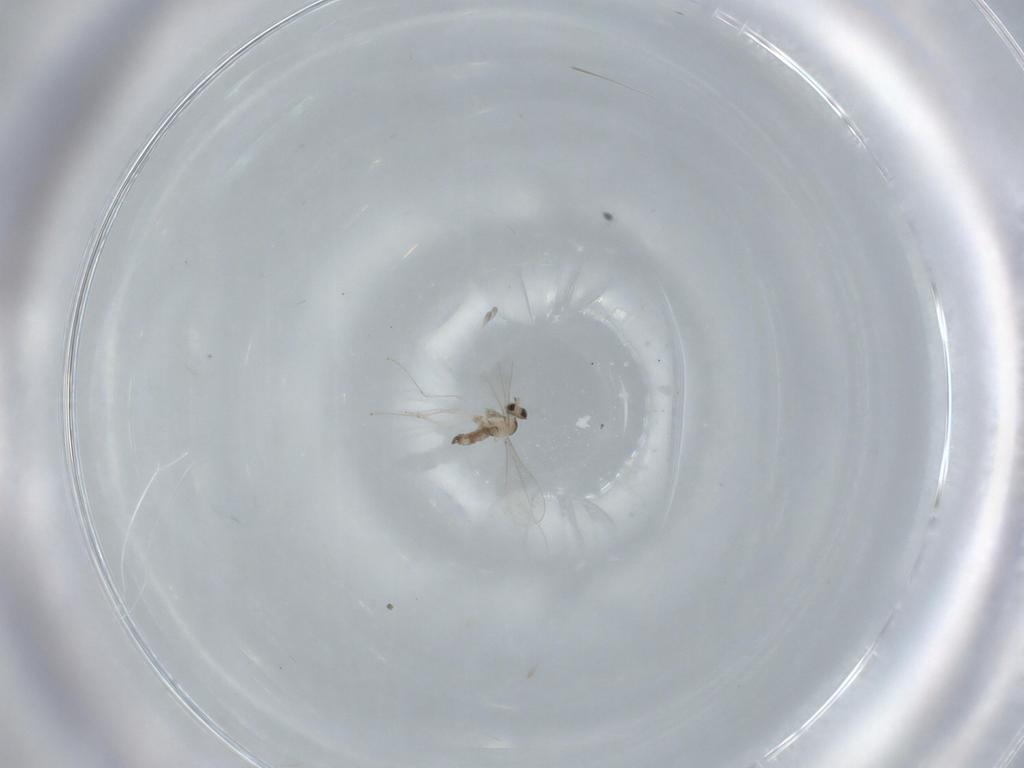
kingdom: Animalia
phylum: Arthropoda
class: Insecta
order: Diptera
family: Cecidomyiidae
